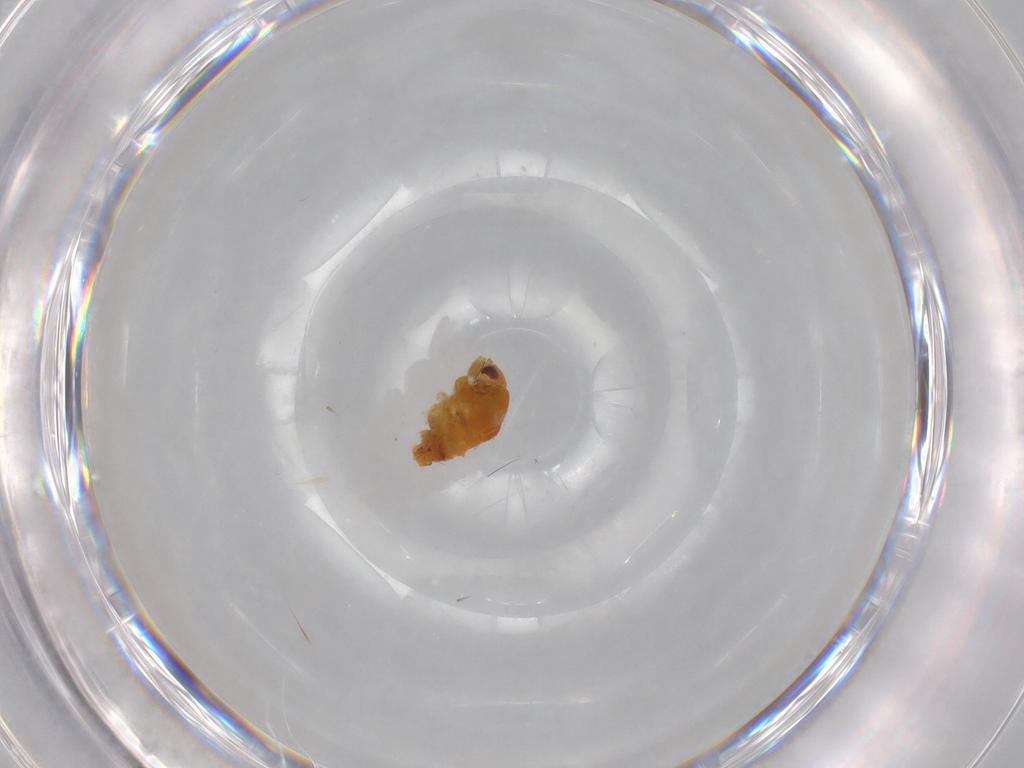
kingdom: Animalia
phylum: Arthropoda
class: Insecta
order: Hemiptera
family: Triozidae
